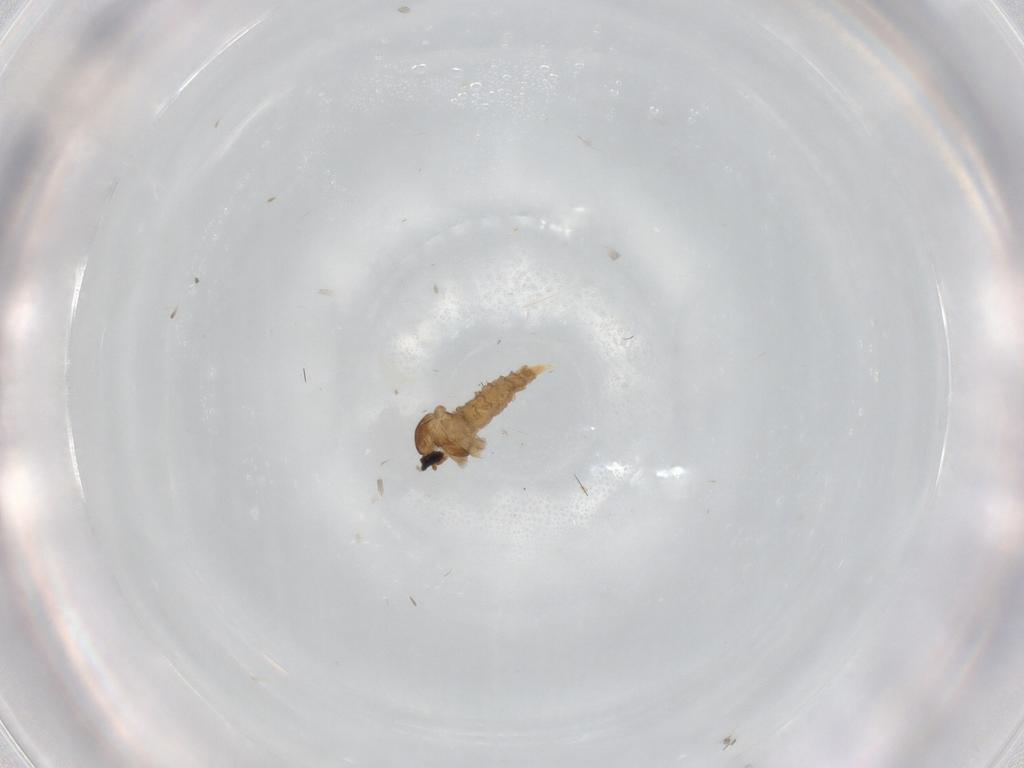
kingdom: Animalia
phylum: Arthropoda
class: Insecta
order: Diptera
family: Cecidomyiidae
